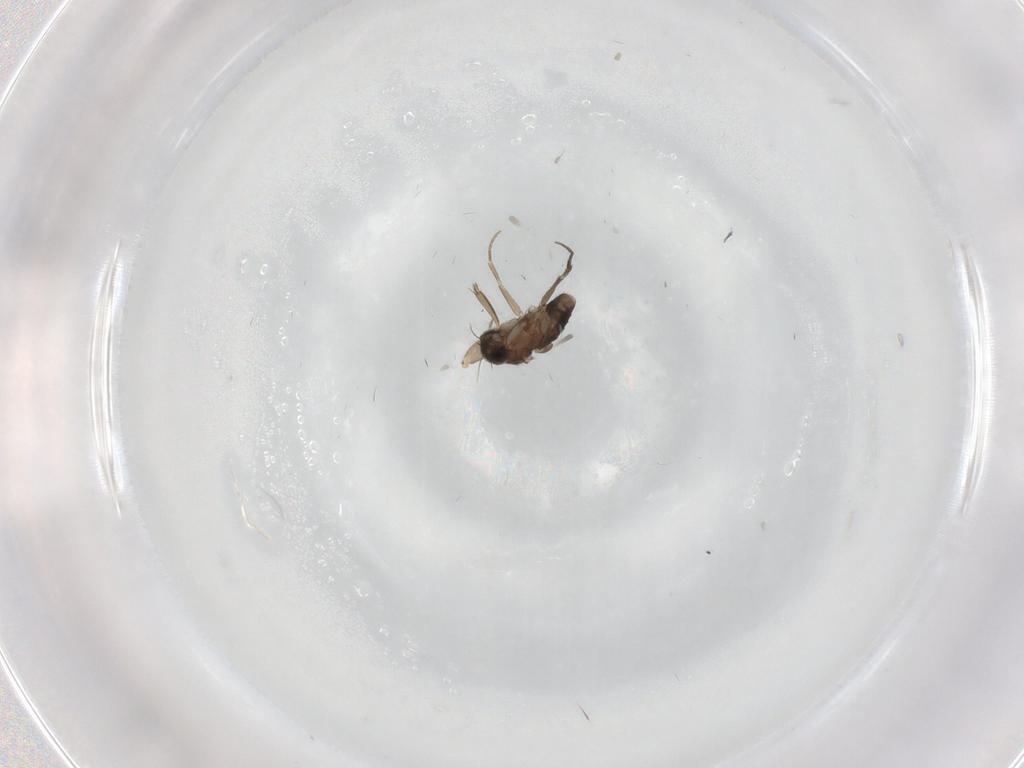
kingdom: Animalia
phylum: Arthropoda
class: Insecta
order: Diptera
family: Phoridae
